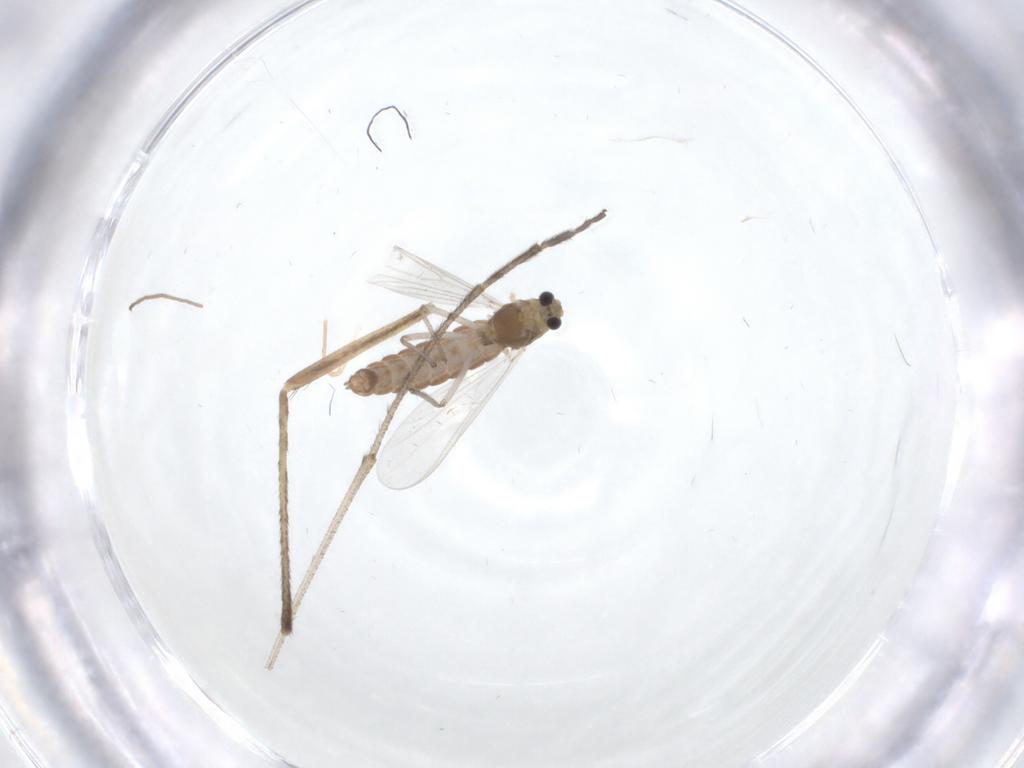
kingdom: Animalia
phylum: Arthropoda
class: Insecta
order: Diptera
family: Chironomidae
